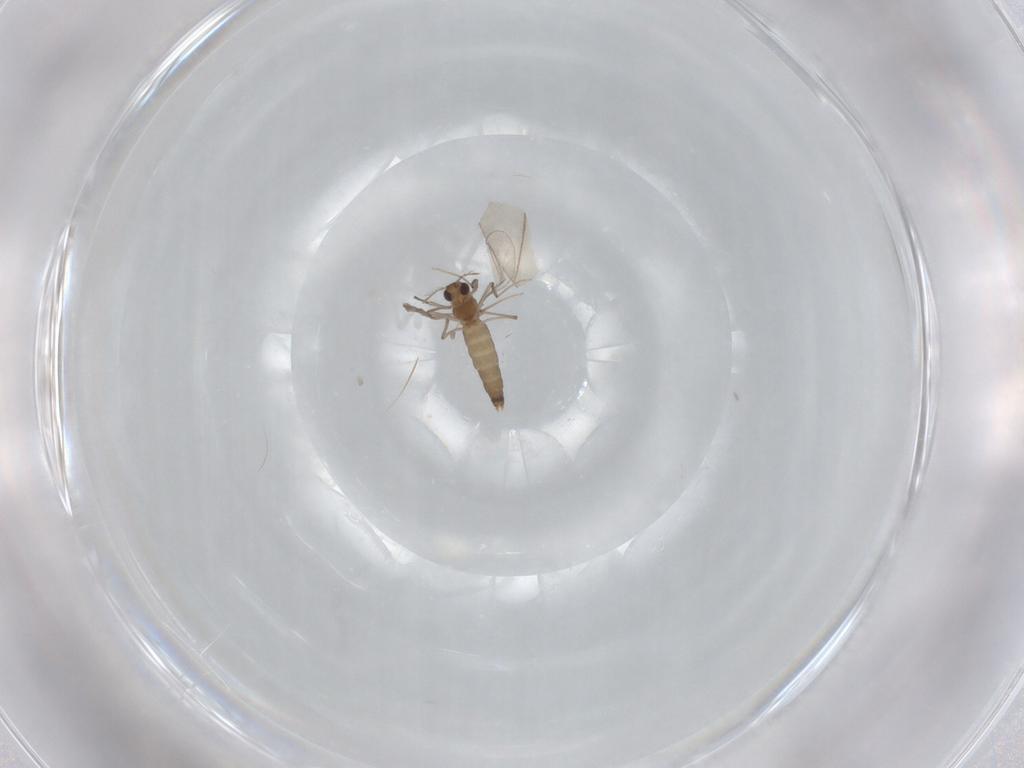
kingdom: Animalia
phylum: Arthropoda
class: Insecta
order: Diptera
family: Chironomidae
